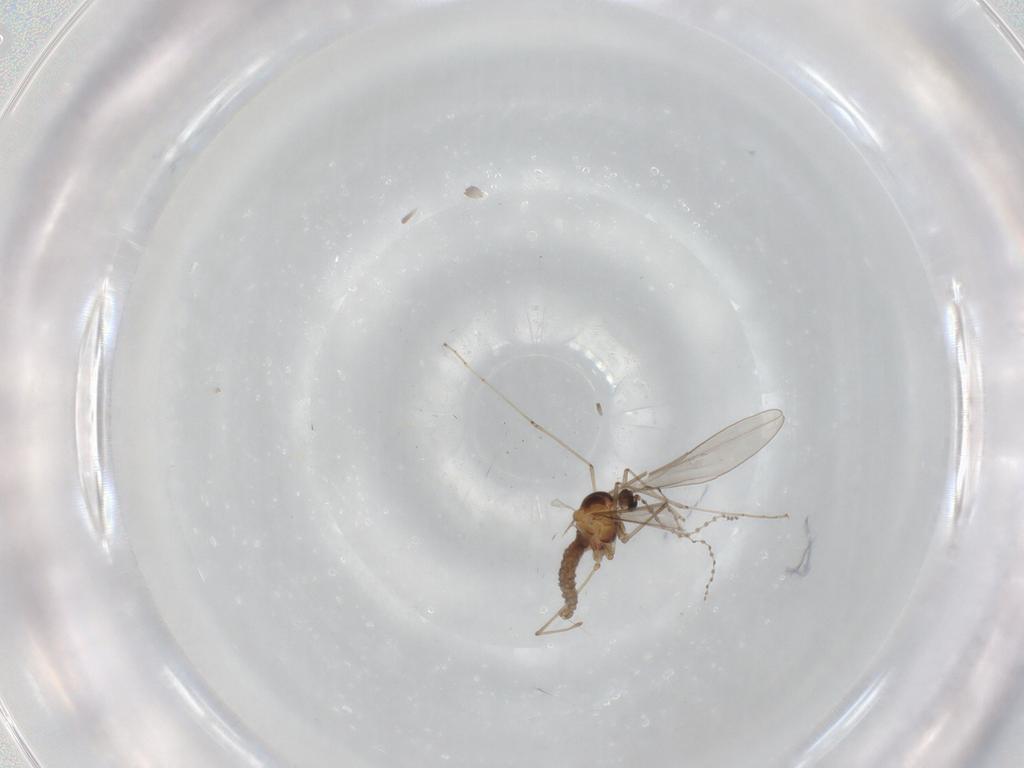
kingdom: Animalia
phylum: Arthropoda
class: Insecta
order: Diptera
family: Cecidomyiidae
